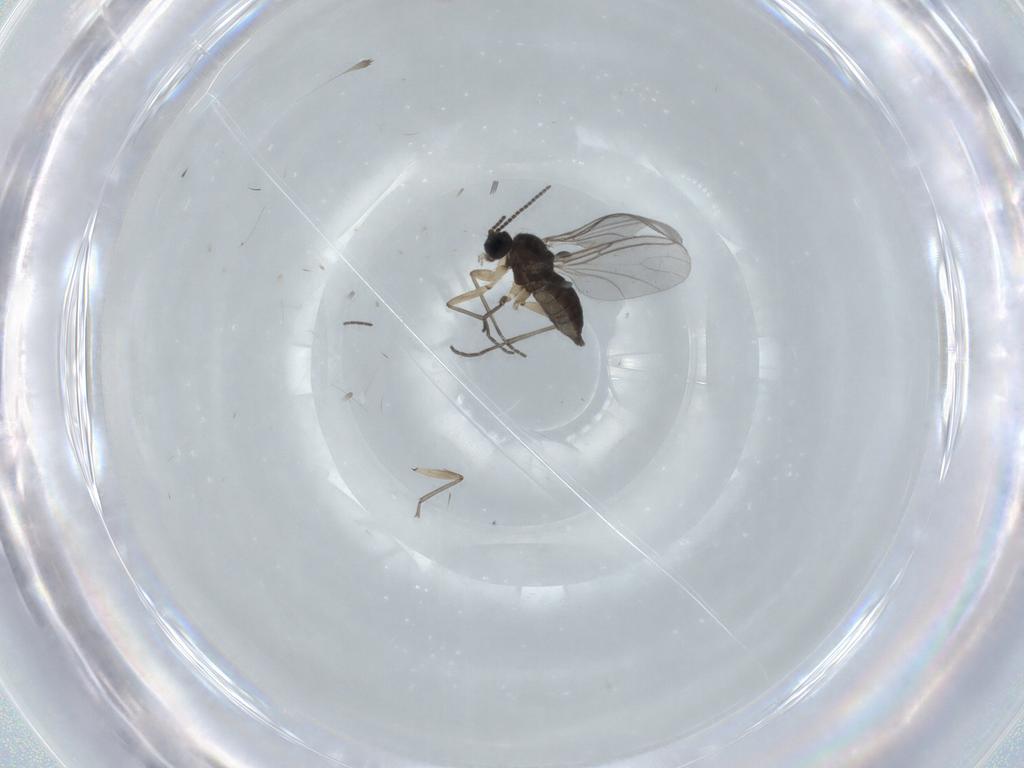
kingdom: Animalia
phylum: Arthropoda
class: Insecta
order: Diptera
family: Sciaridae
